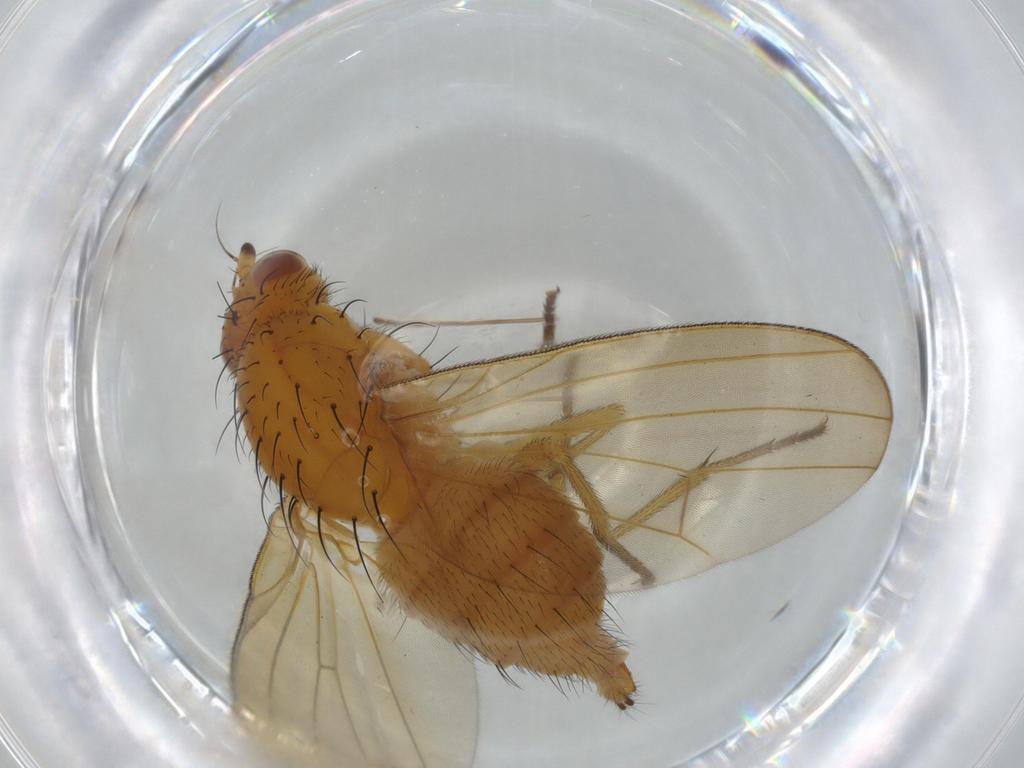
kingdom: Animalia
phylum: Arthropoda
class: Insecta
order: Diptera
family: Cecidomyiidae
